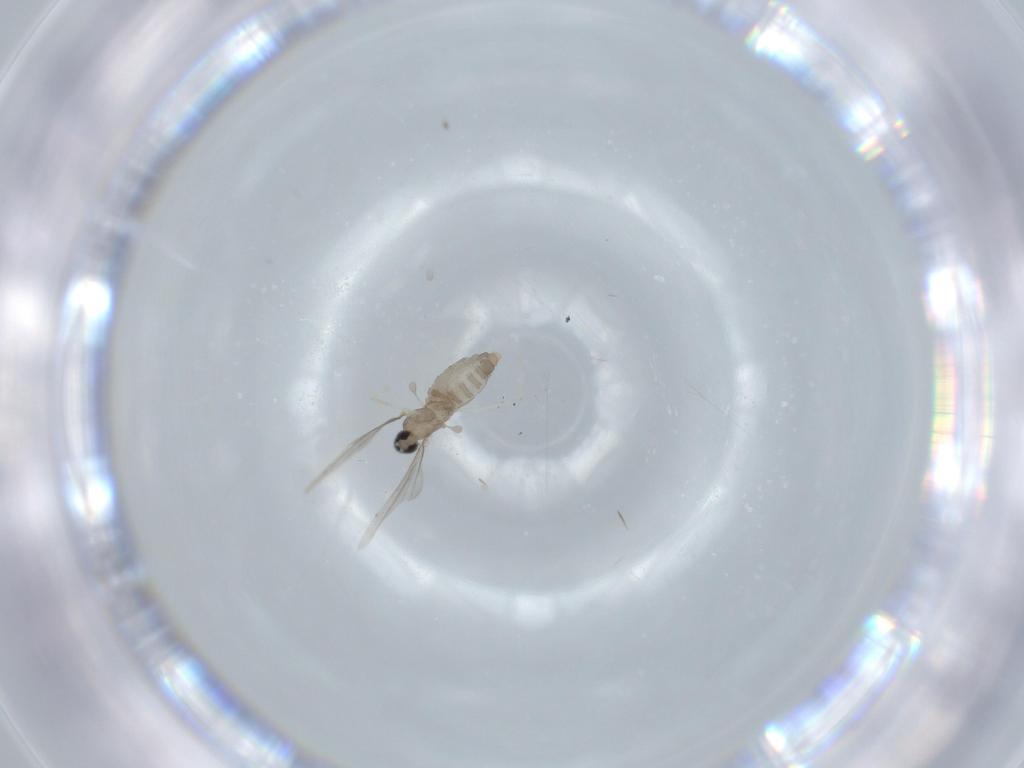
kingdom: Animalia
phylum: Arthropoda
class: Insecta
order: Diptera
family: Cecidomyiidae
